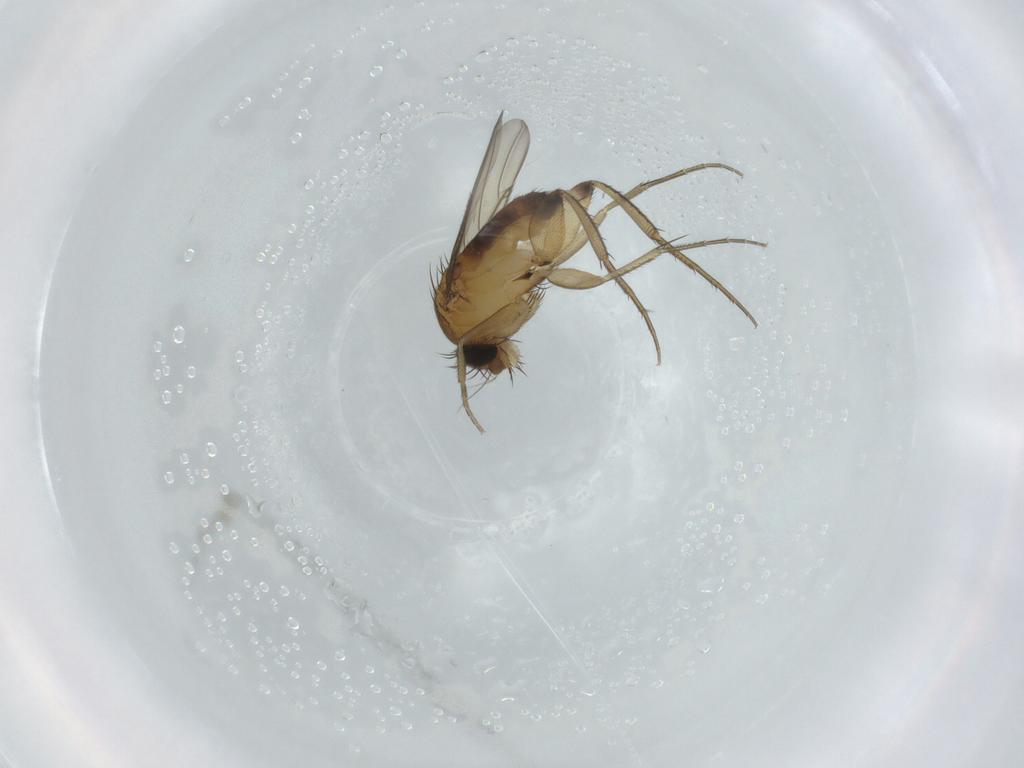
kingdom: Animalia
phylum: Arthropoda
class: Insecta
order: Diptera
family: Phoridae
